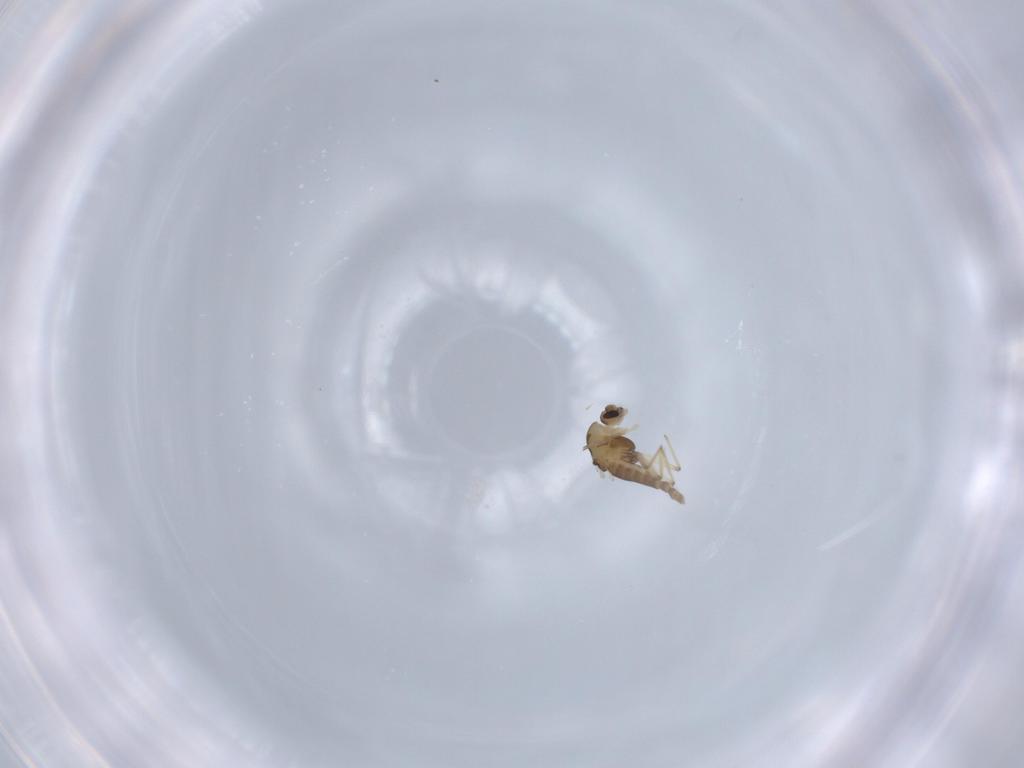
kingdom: Animalia
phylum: Arthropoda
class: Insecta
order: Diptera
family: Chironomidae
